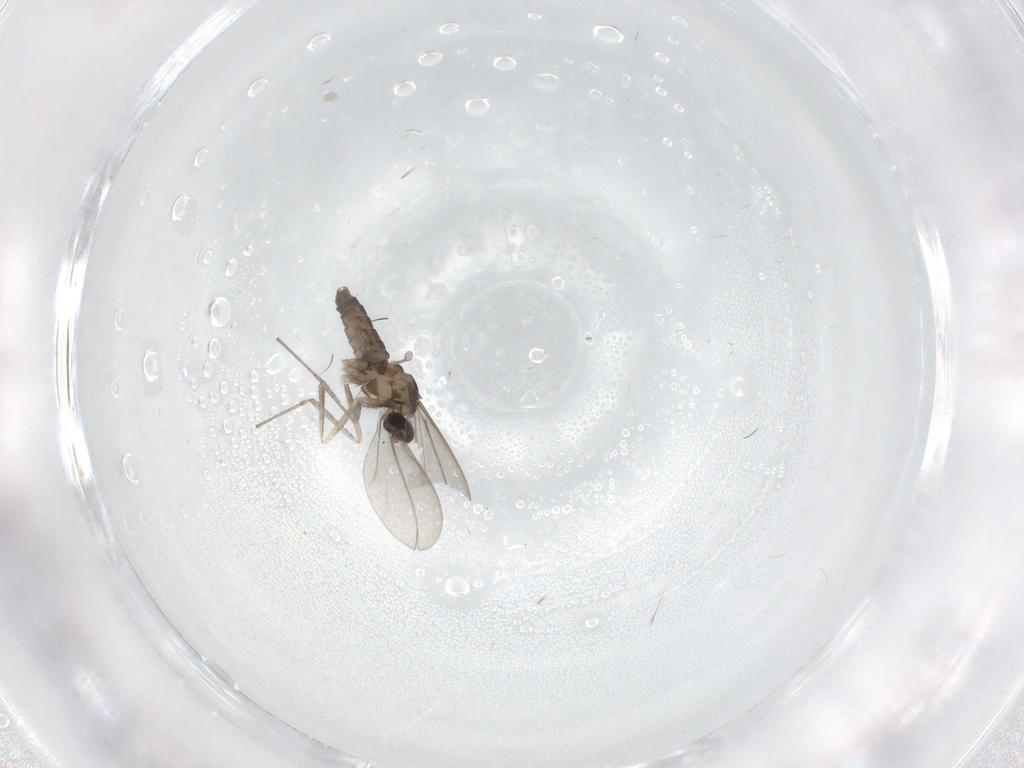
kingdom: Animalia
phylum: Arthropoda
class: Insecta
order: Diptera
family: Cecidomyiidae
